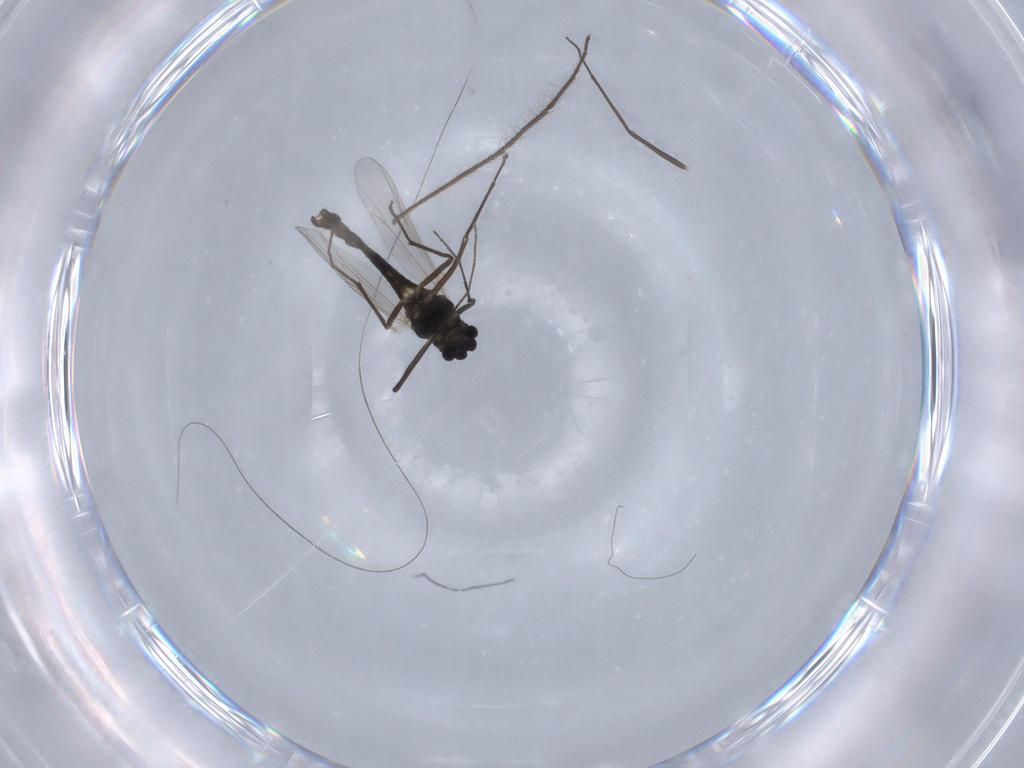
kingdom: Animalia
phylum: Arthropoda
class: Insecta
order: Diptera
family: Chironomidae
